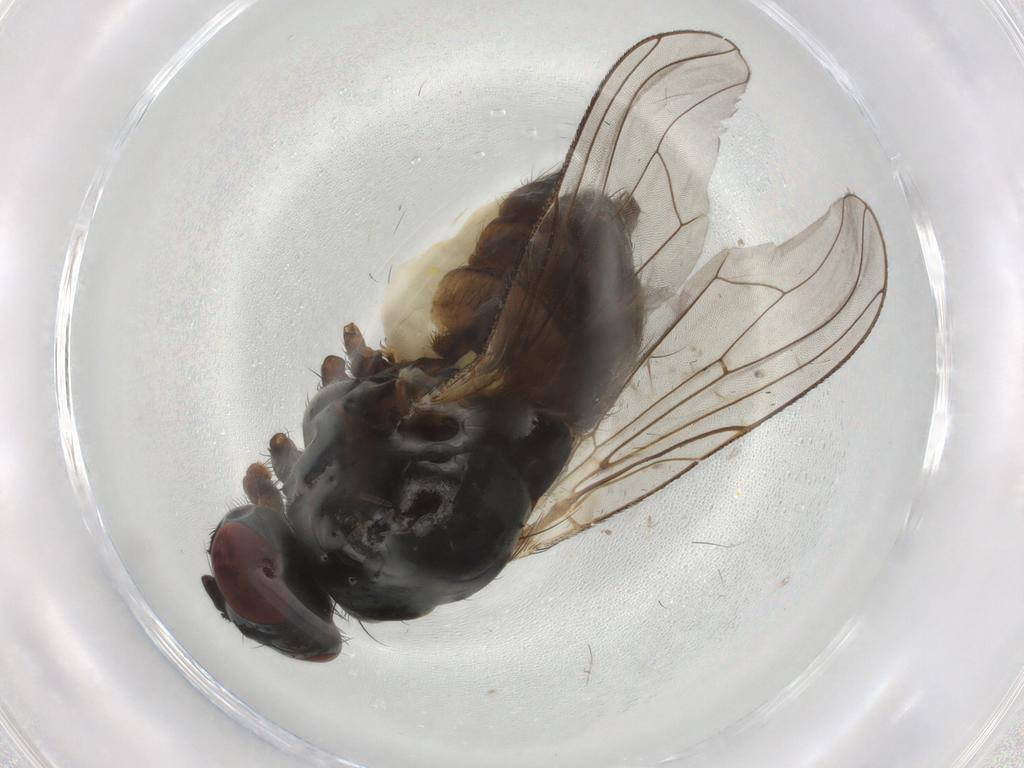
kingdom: Animalia
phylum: Arthropoda
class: Insecta
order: Diptera
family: Anthomyiidae
